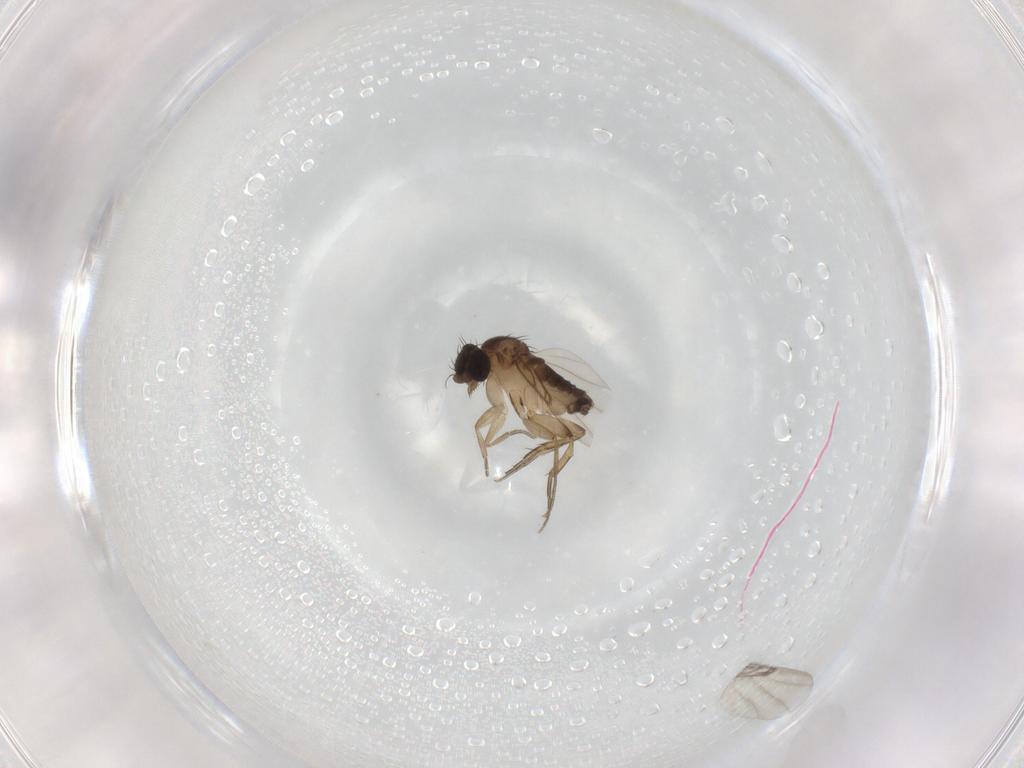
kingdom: Animalia
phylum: Arthropoda
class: Insecta
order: Diptera
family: Phoridae
